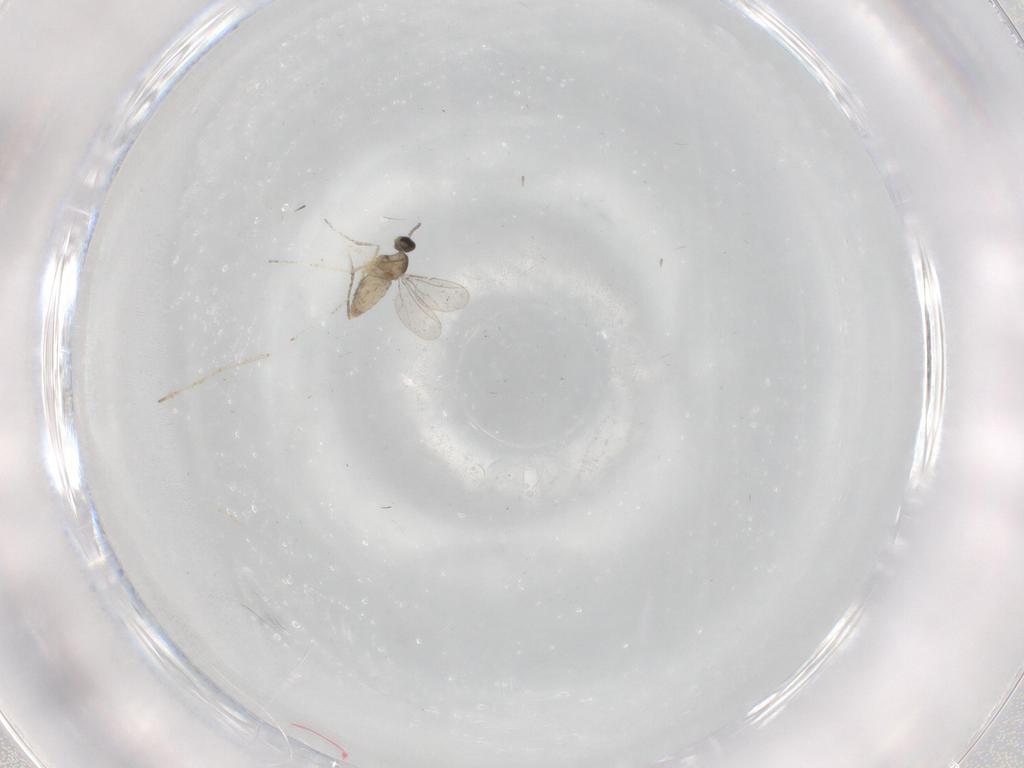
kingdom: Animalia
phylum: Arthropoda
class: Insecta
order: Diptera
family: Cecidomyiidae
